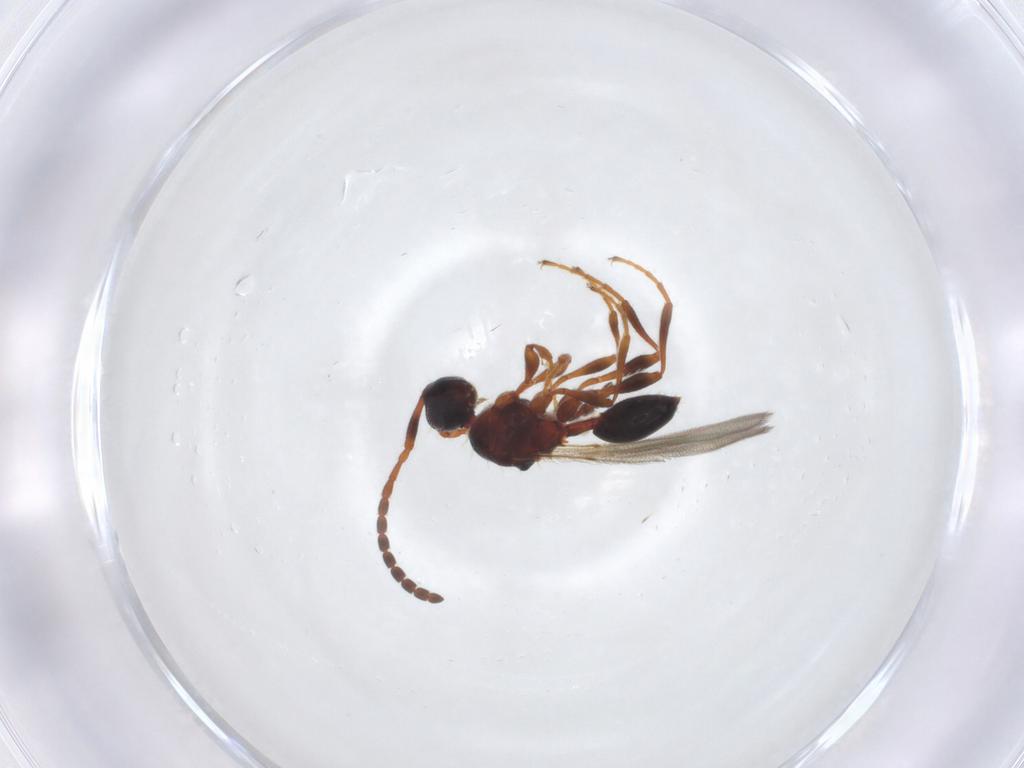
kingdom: Animalia
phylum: Arthropoda
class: Insecta
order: Hymenoptera
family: Diapriidae
